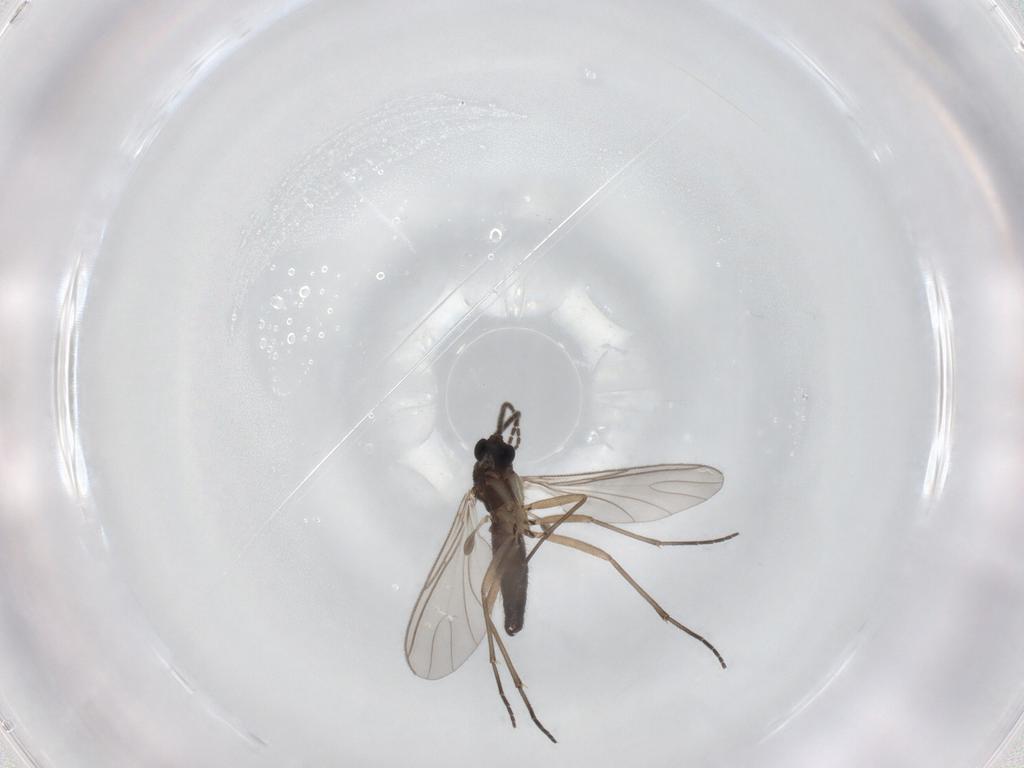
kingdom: Animalia
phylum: Arthropoda
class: Insecta
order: Diptera
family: Sciaridae
